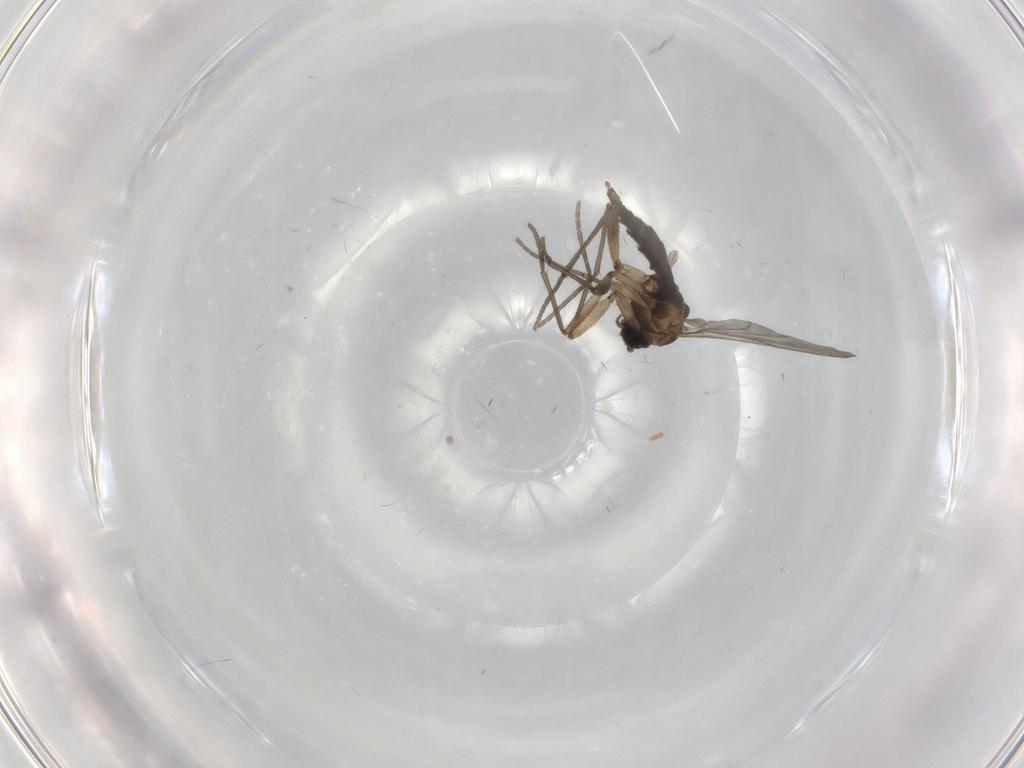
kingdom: Animalia
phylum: Arthropoda
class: Insecta
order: Diptera
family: Sciaridae
